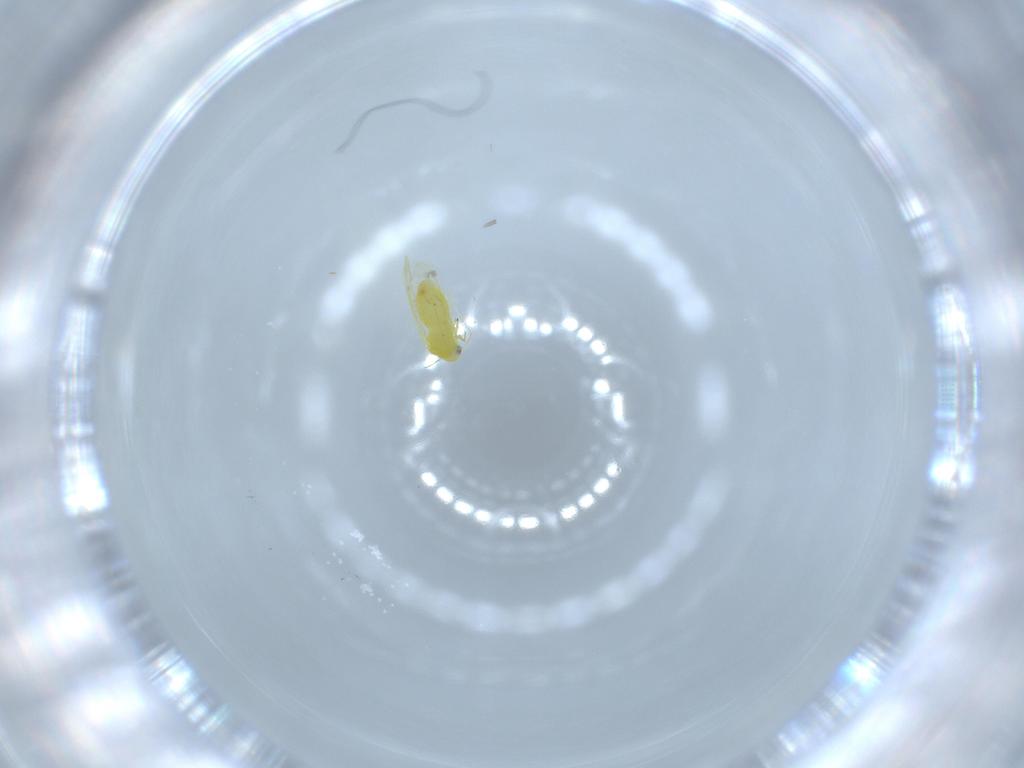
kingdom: Animalia
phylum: Arthropoda
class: Insecta
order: Hemiptera
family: Aleyrodidae
